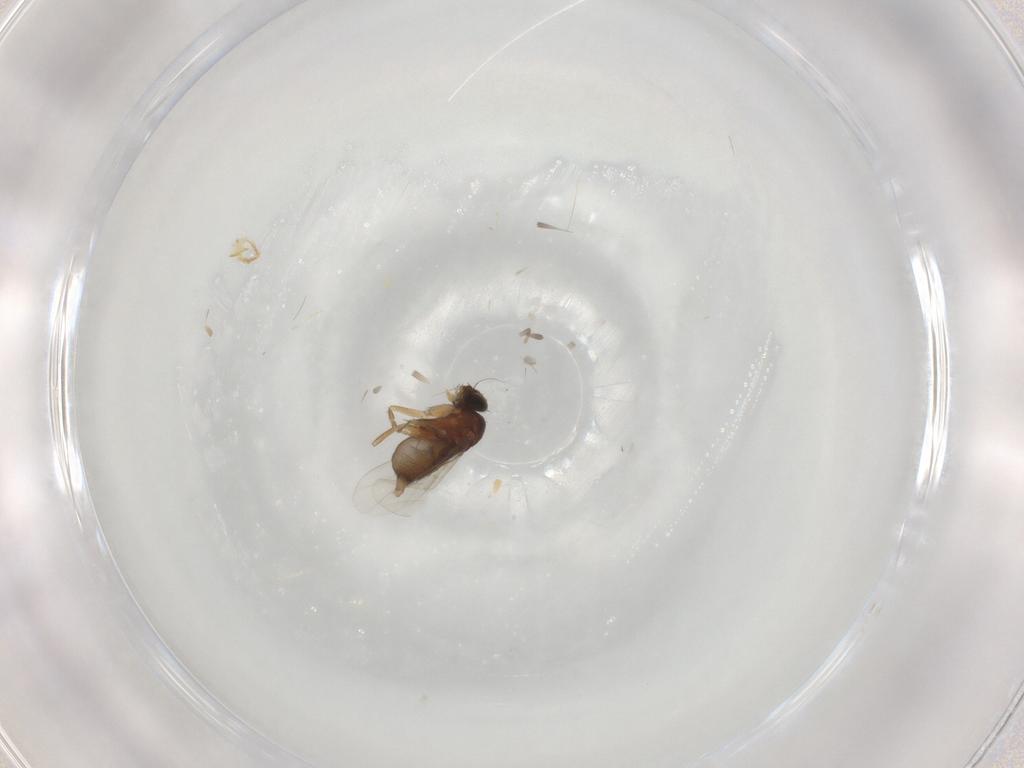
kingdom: Animalia
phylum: Arthropoda
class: Insecta
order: Diptera
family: Phoridae
